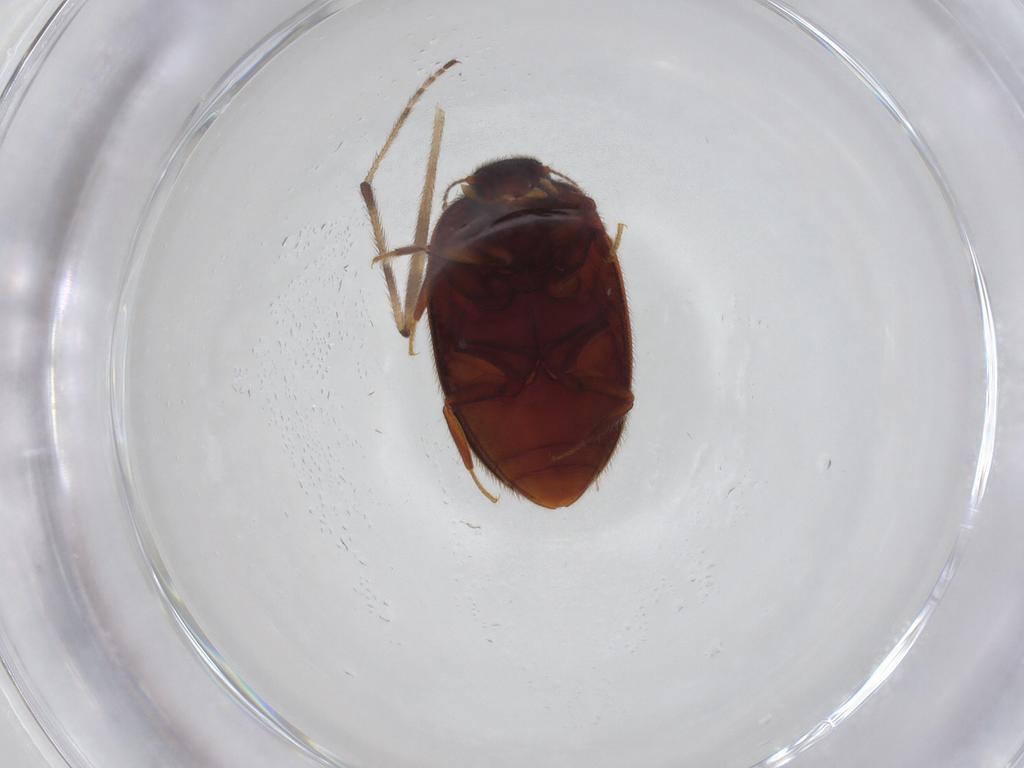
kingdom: Animalia
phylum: Arthropoda
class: Insecta
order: Coleoptera
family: Limnichidae
